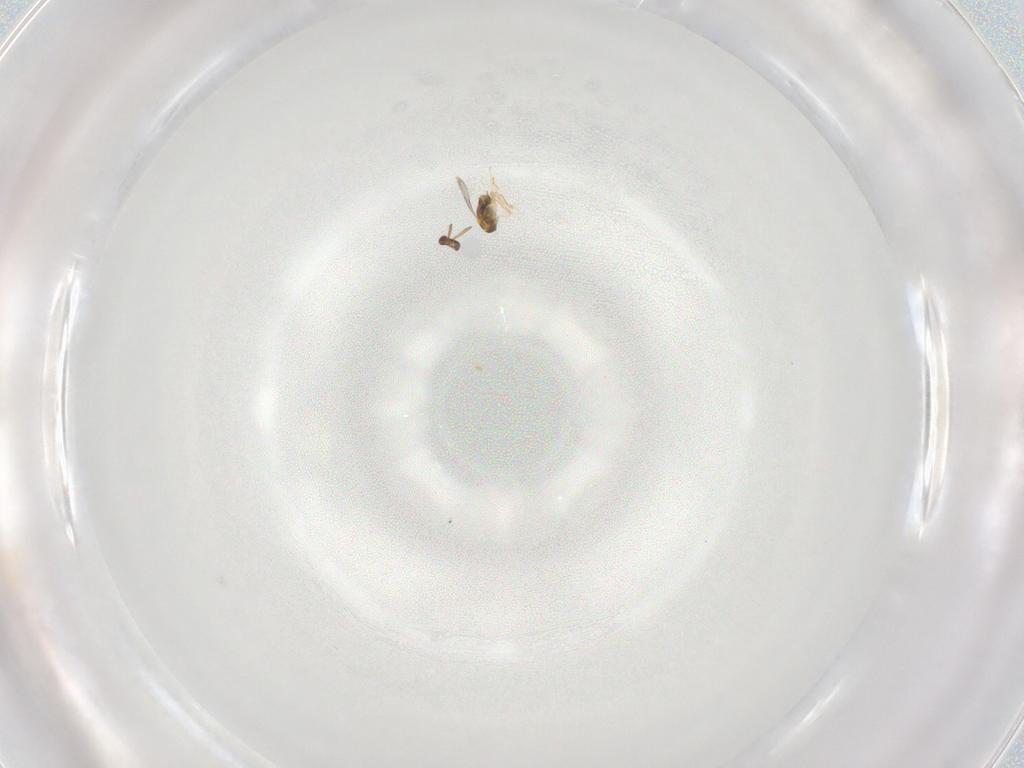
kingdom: Animalia
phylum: Arthropoda
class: Insecta
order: Hymenoptera
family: Aphelinidae
